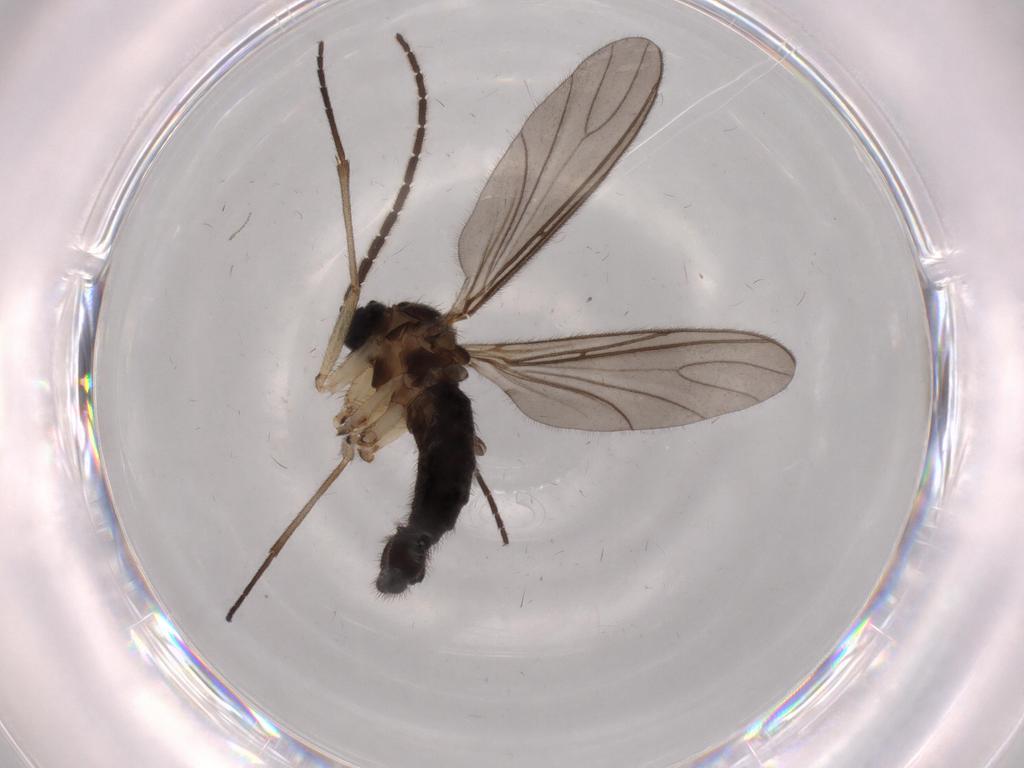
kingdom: Animalia
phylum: Arthropoda
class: Insecta
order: Diptera
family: Sciaridae
